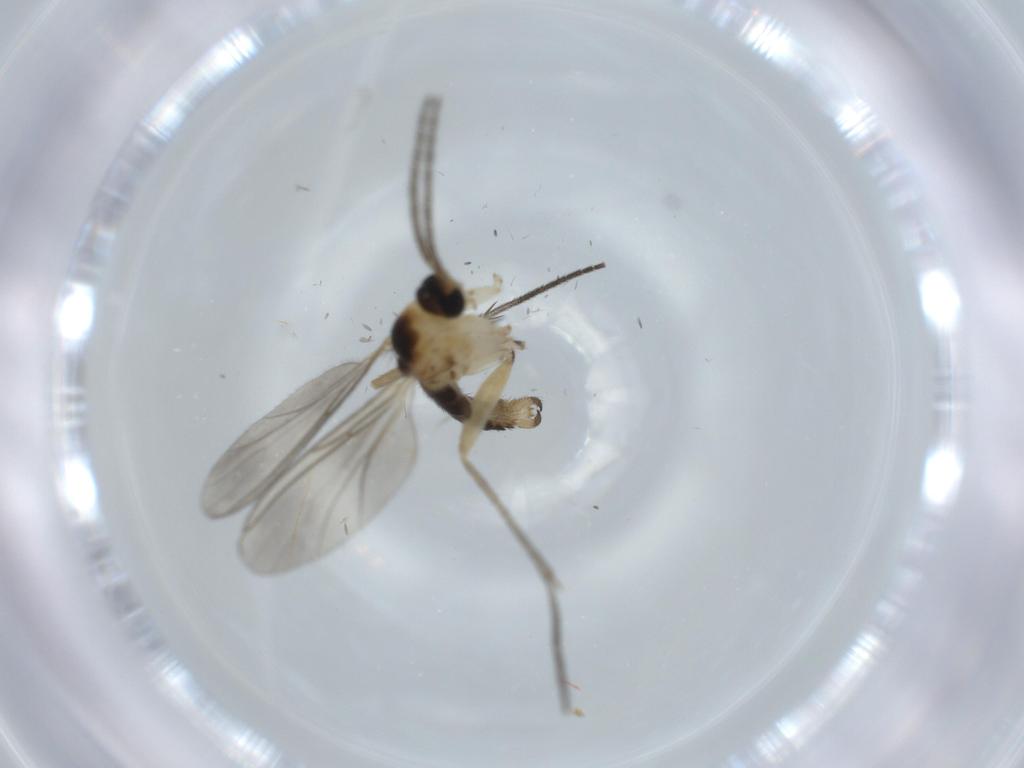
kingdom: Animalia
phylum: Arthropoda
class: Insecta
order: Diptera
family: Sciaridae
